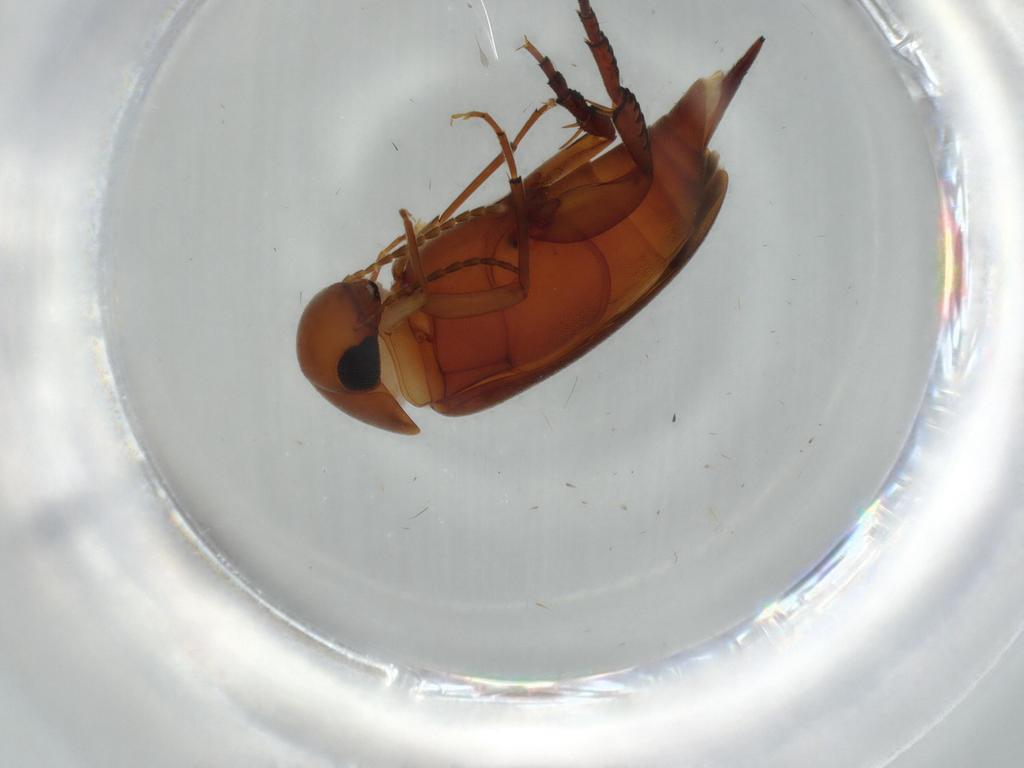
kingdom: Animalia
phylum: Arthropoda
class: Insecta
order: Coleoptera
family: Mordellidae
